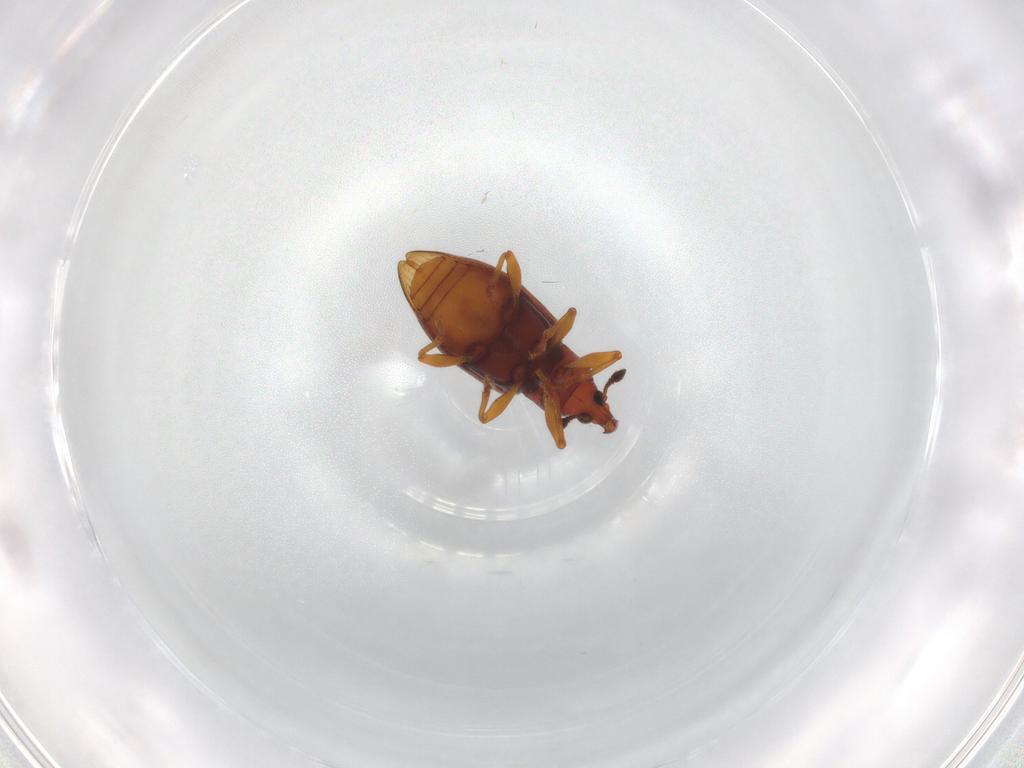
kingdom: Animalia
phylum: Arthropoda
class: Insecta
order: Coleoptera
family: Curculionidae
